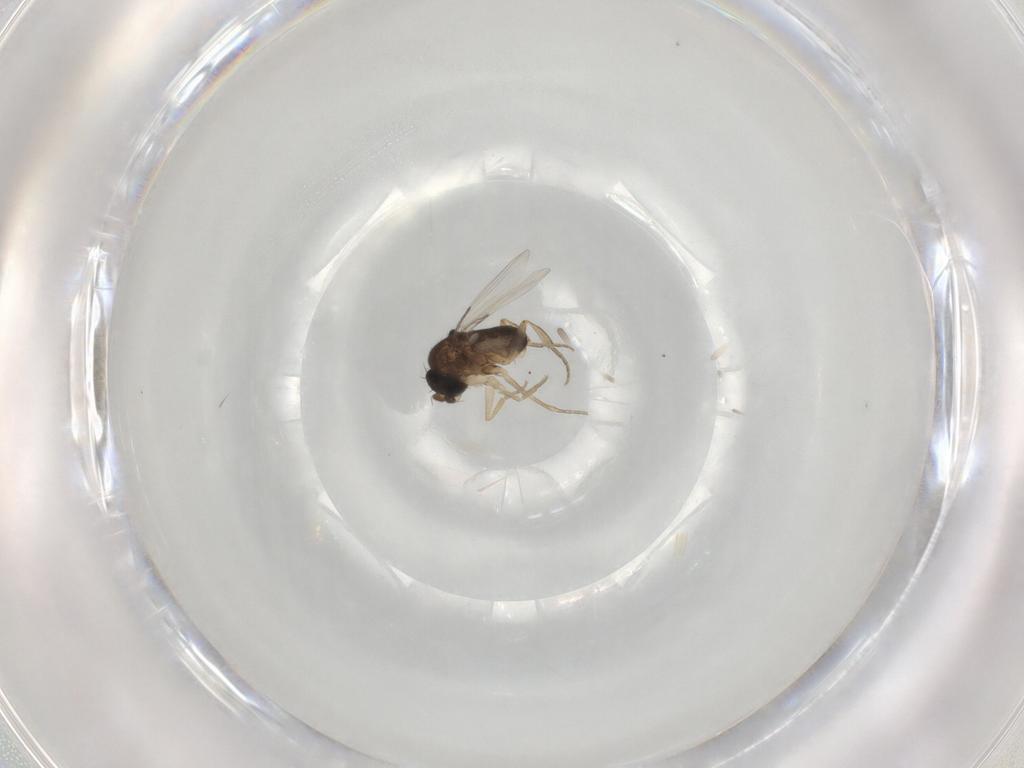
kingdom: Animalia
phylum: Arthropoda
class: Insecta
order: Diptera
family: Phoridae
